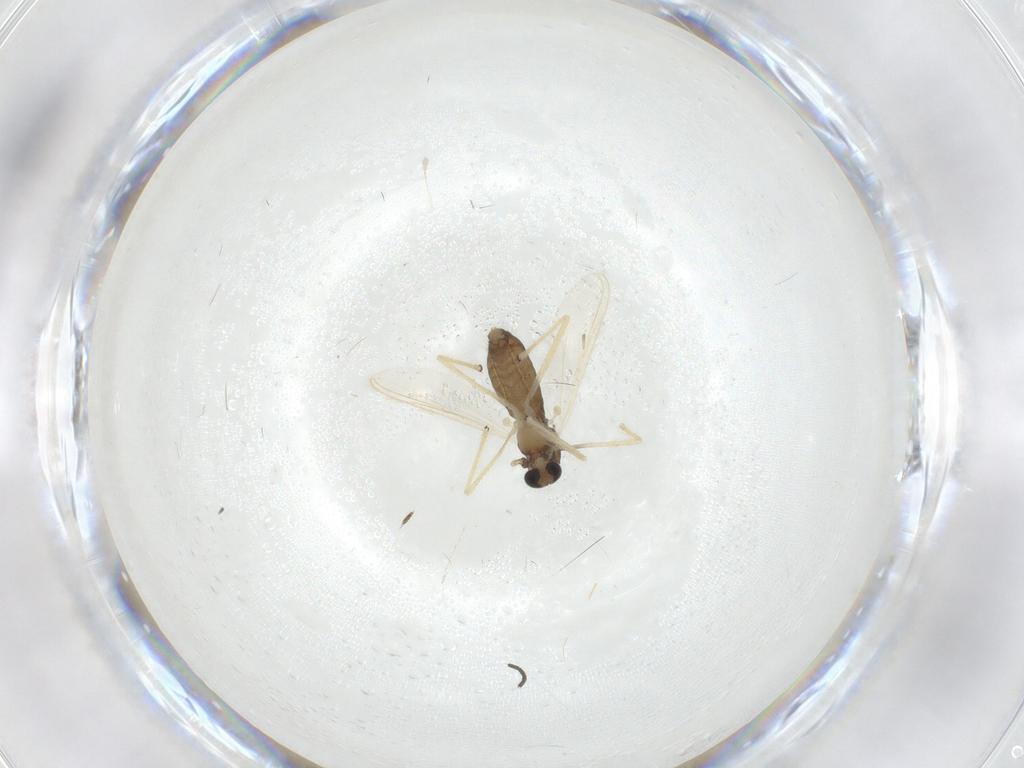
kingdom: Animalia
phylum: Arthropoda
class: Insecta
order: Diptera
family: Chironomidae
